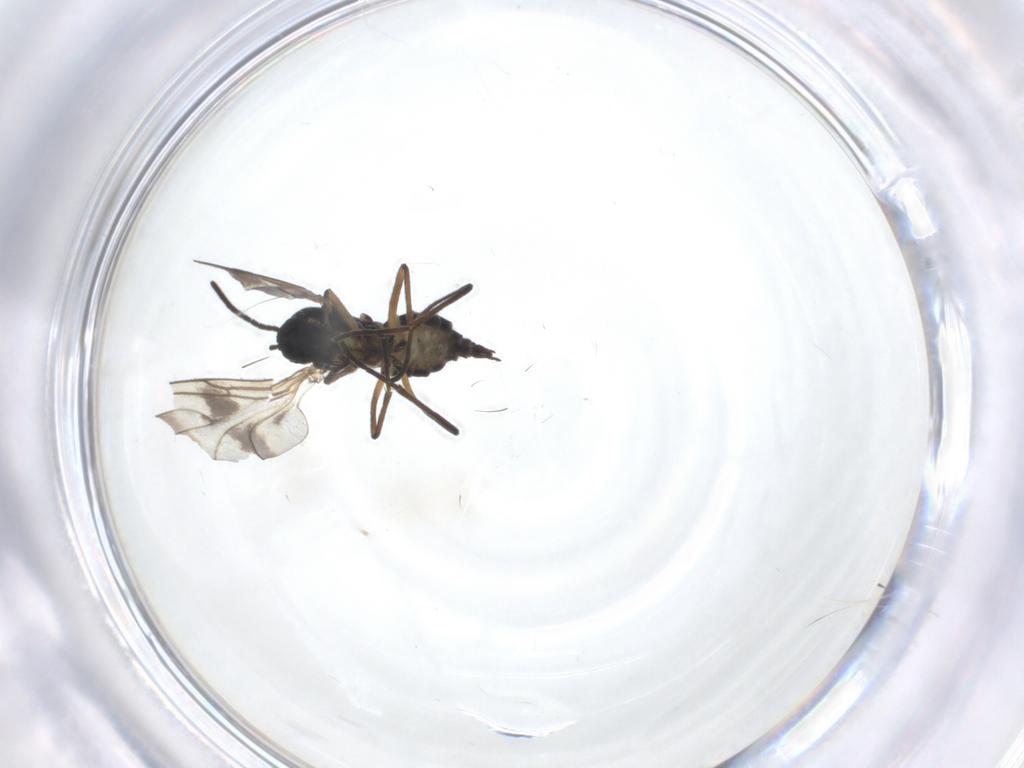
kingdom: Animalia
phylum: Arthropoda
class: Insecta
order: Diptera
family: Sciaridae
